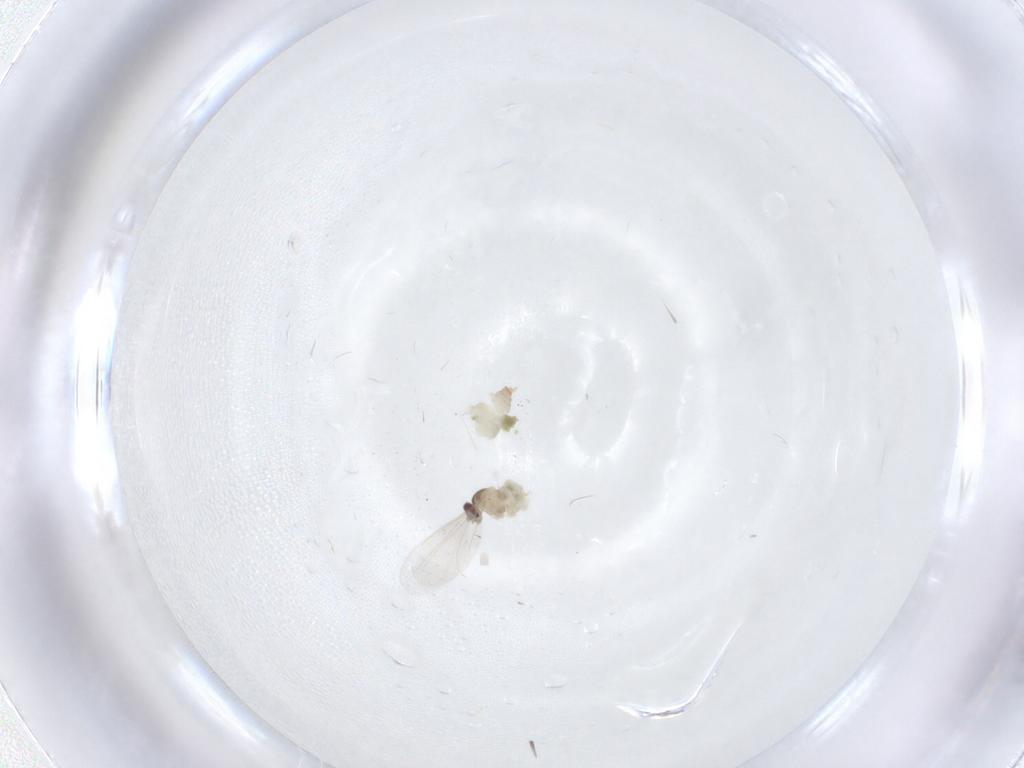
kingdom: Animalia
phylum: Arthropoda
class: Insecta
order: Diptera
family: Cecidomyiidae
